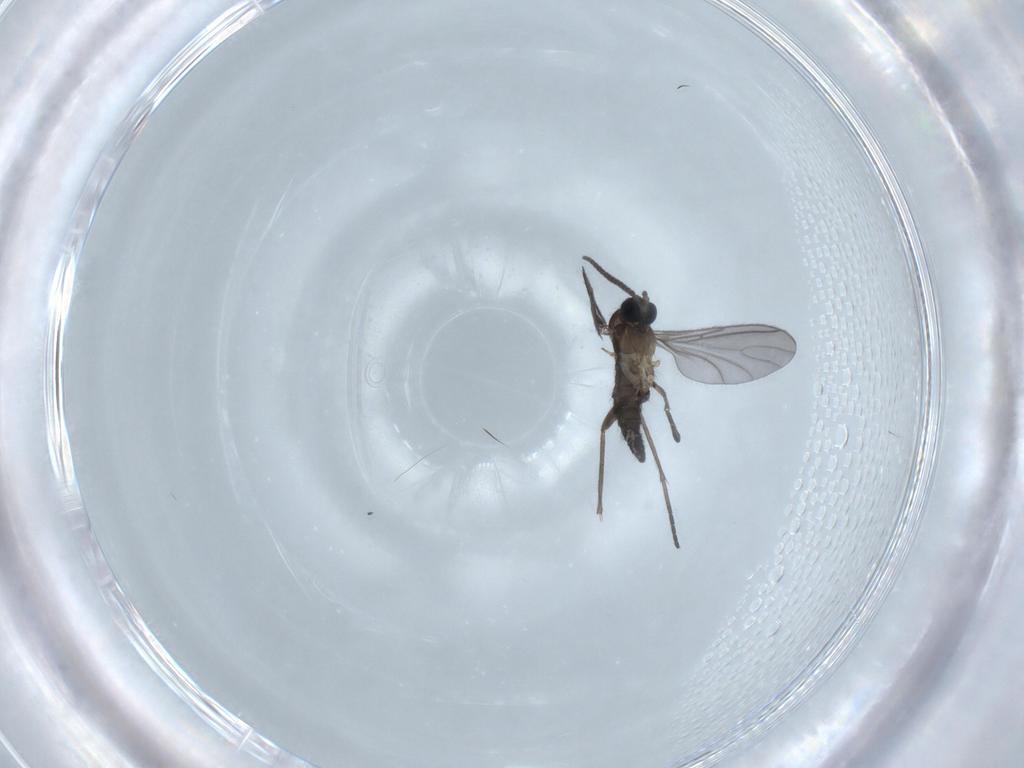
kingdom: Animalia
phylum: Arthropoda
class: Insecta
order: Diptera
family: Sciaridae
